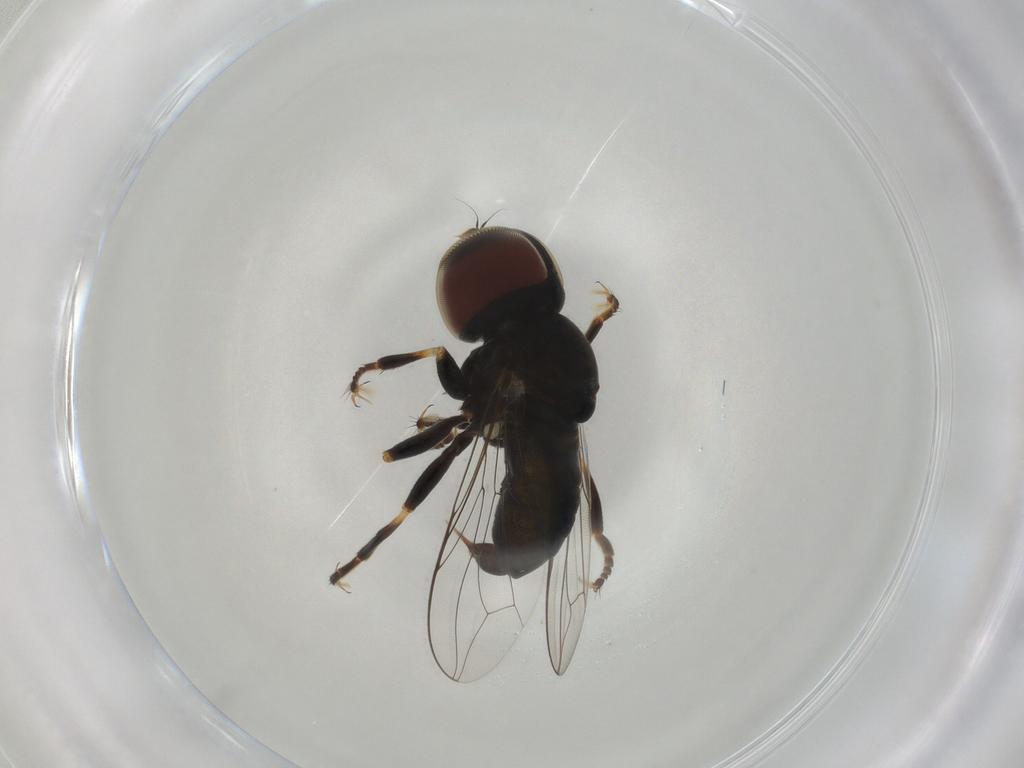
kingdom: Animalia
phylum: Arthropoda
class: Insecta
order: Diptera
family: Pipunculidae
